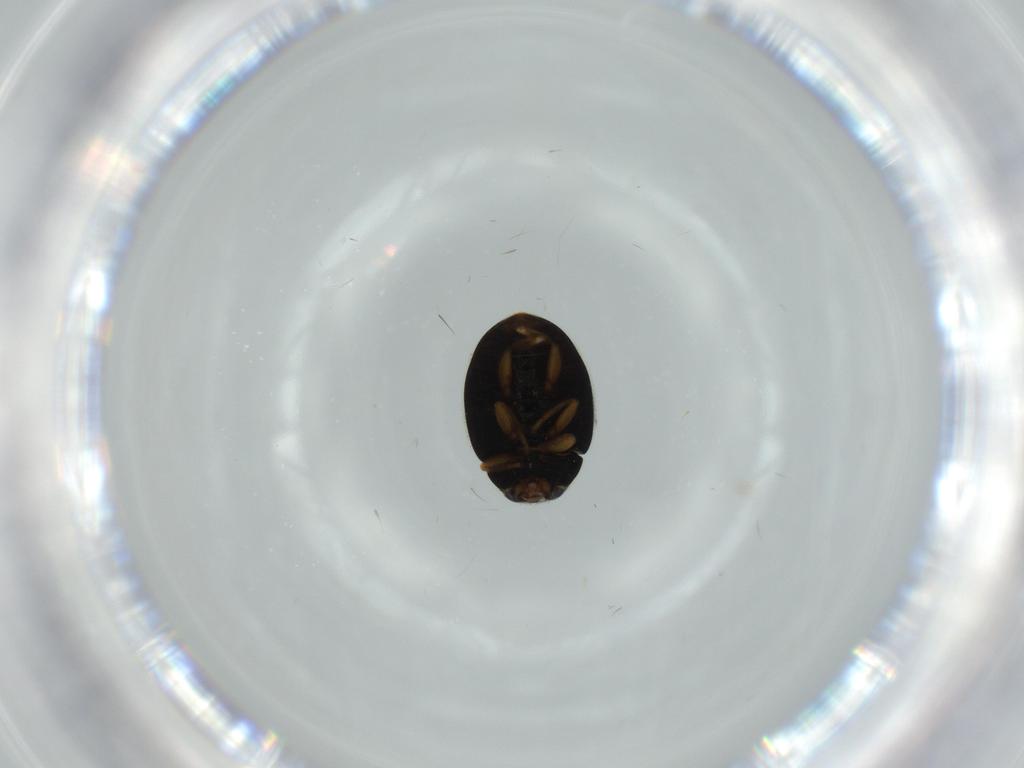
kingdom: Animalia
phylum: Arthropoda
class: Insecta
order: Coleoptera
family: Coccinellidae
